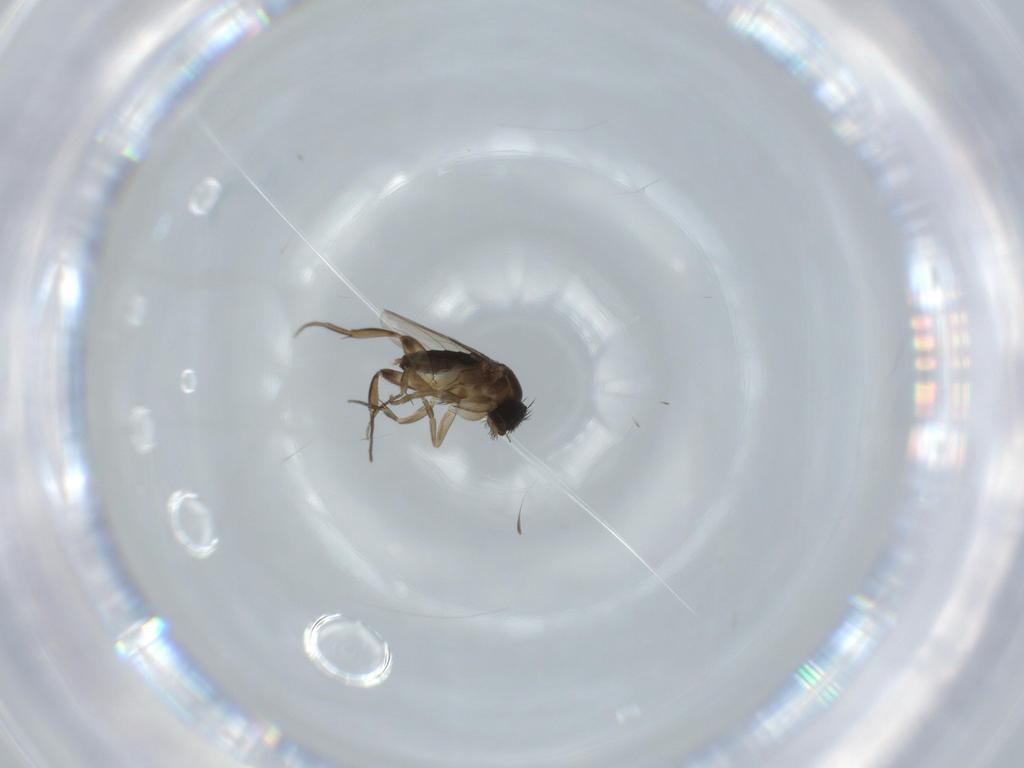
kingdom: Animalia
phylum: Arthropoda
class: Insecta
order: Diptera
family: Phoridae
